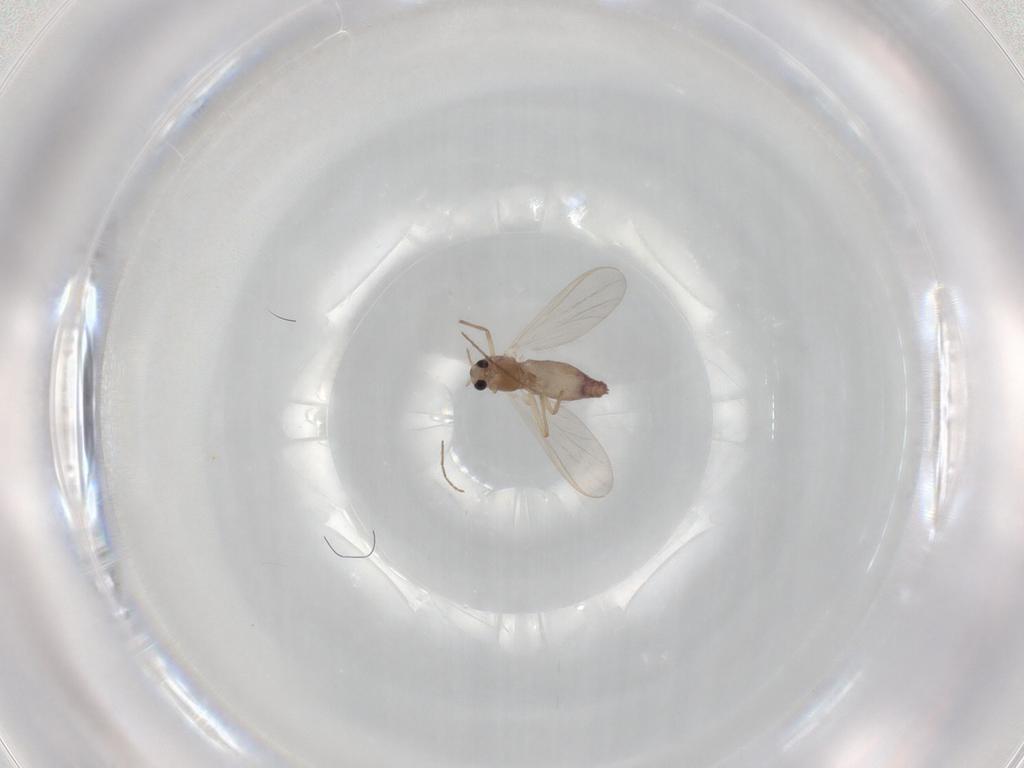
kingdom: Animalia
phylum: Arthropoda
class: Insecta
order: Diptera
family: Chironomidae
